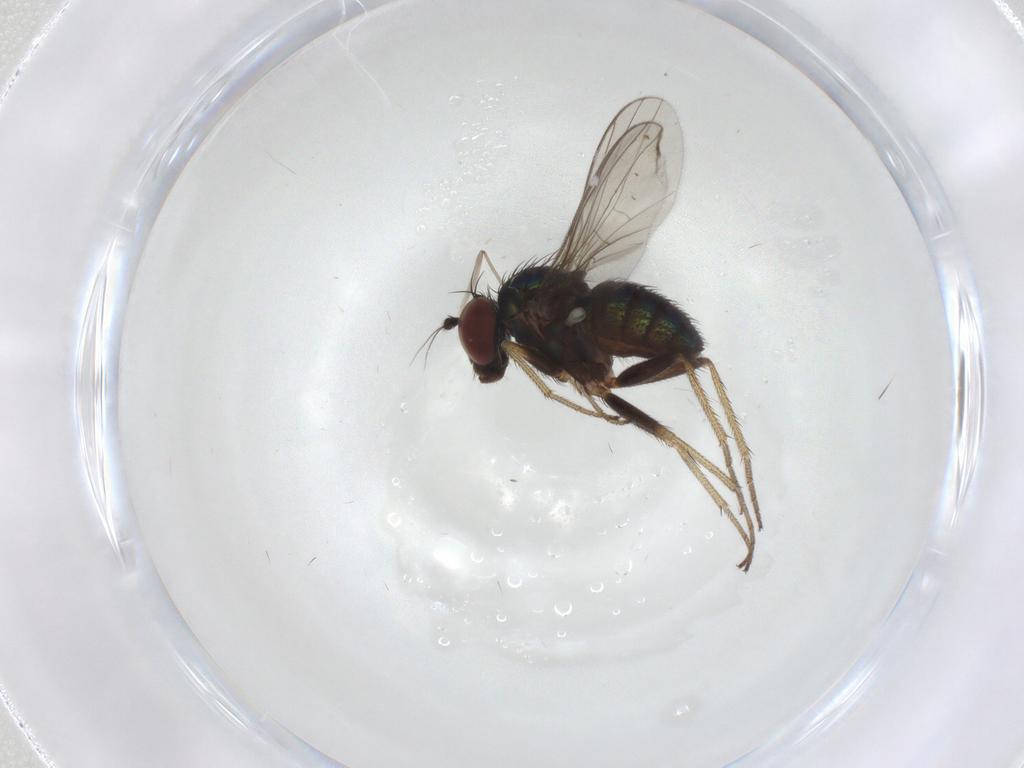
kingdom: Animalia
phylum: Arthropoda
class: Insecta
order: Diptera
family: Chironomidae
